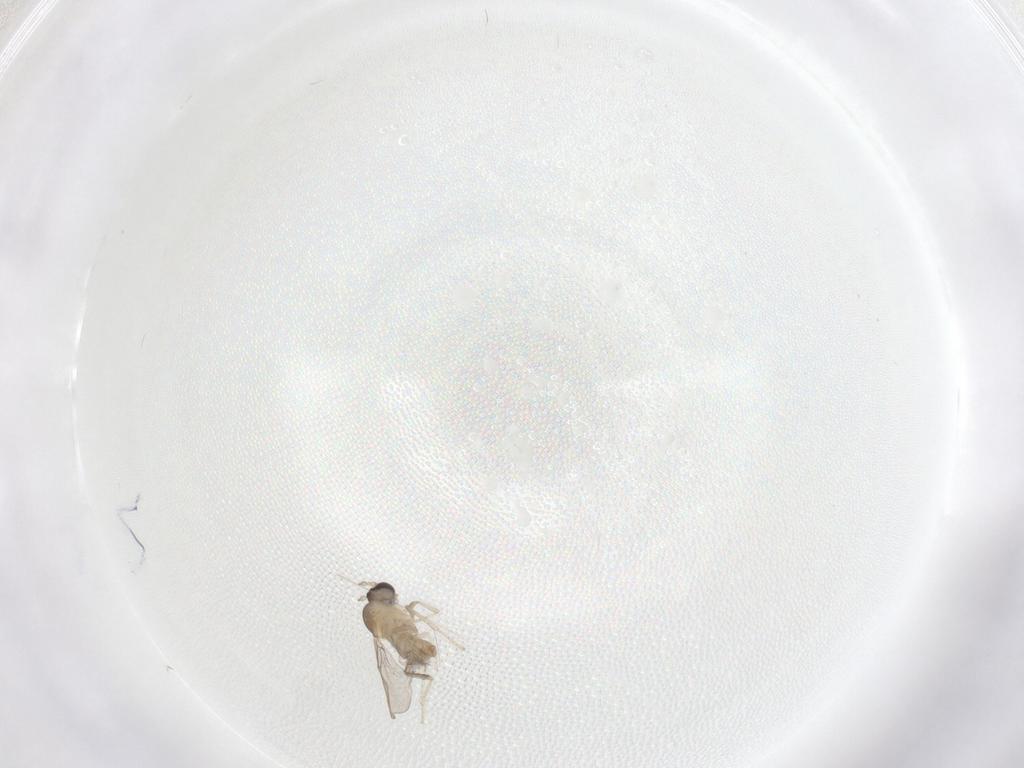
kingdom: Animalia
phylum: Arthropoda
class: Insecta
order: Diptera
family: Cecidomyiidae
